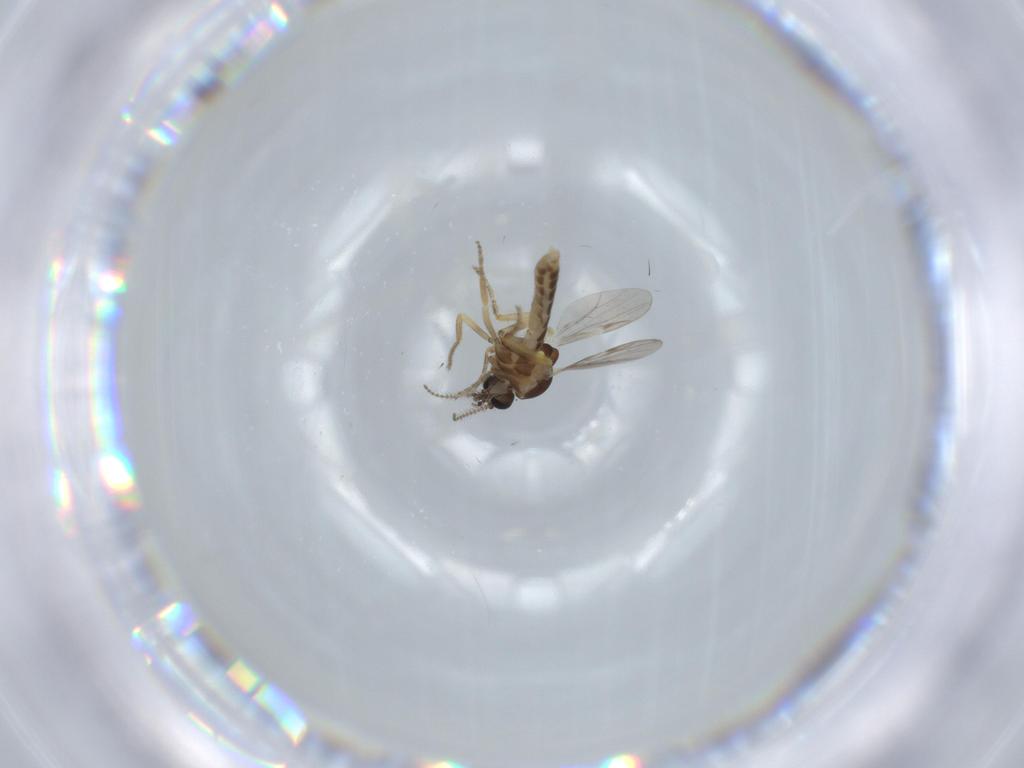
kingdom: Animalia
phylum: Arthropoda
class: Insecta
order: Diptera
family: Ceratopogonidae
